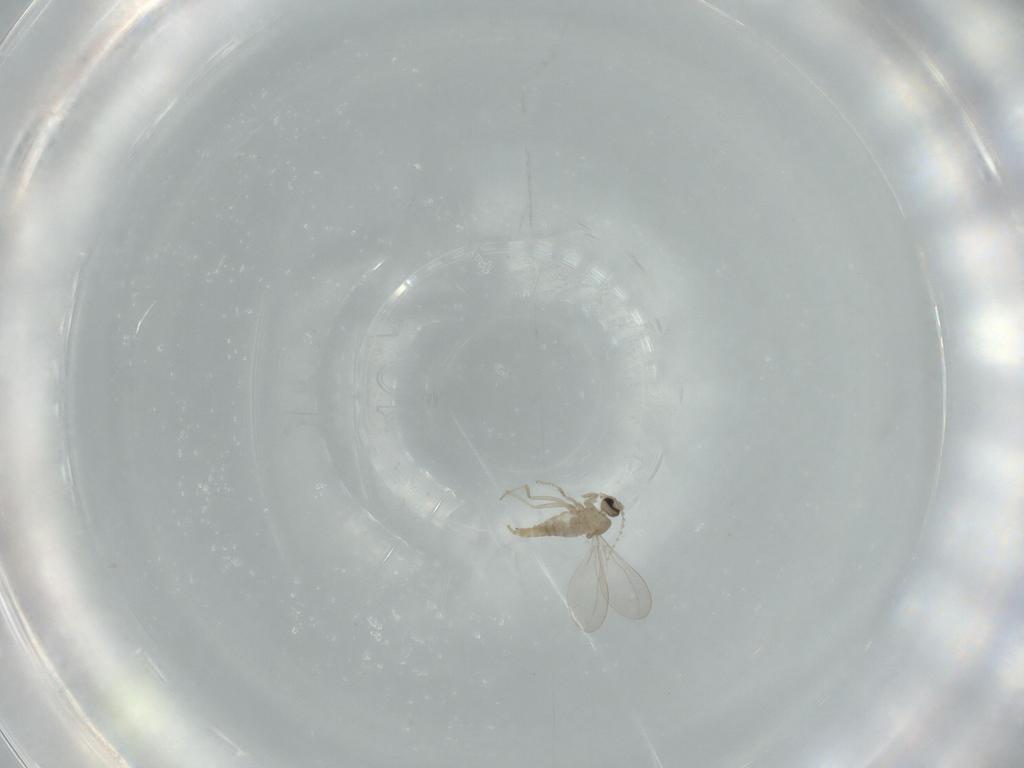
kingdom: Animalia
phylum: Arthropoda
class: Insecta
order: Diptera
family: Cecidomyiidae
